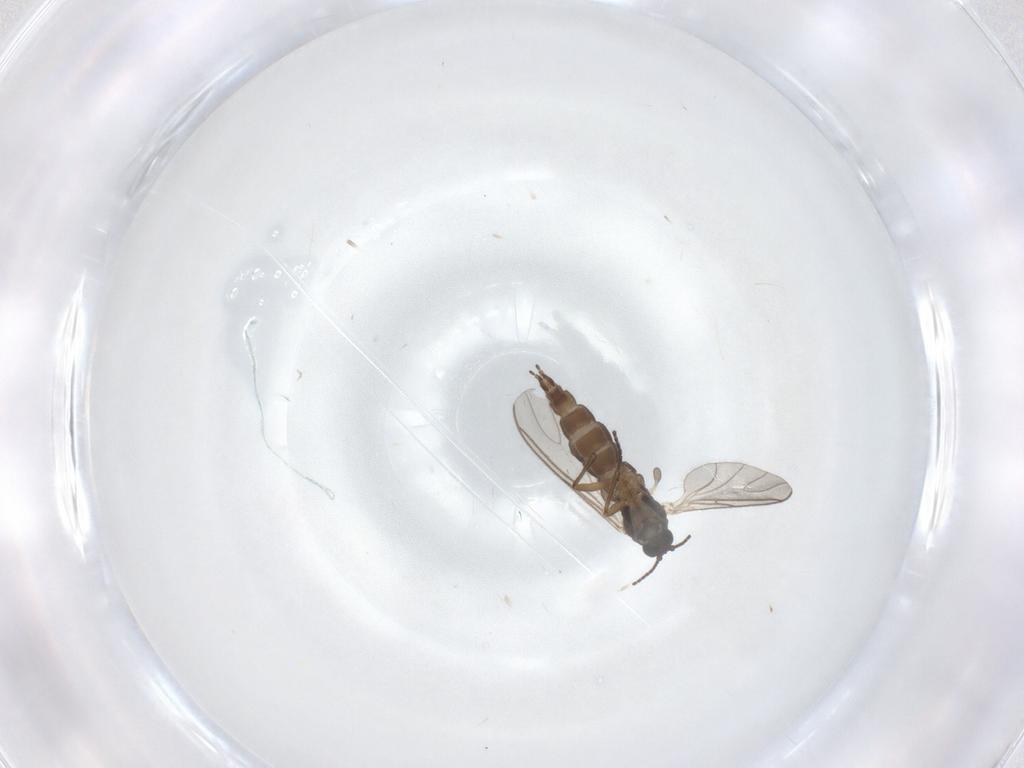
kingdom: Animalia
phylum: Arthropoda
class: Insecta
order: Diptera
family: Sciaridae
